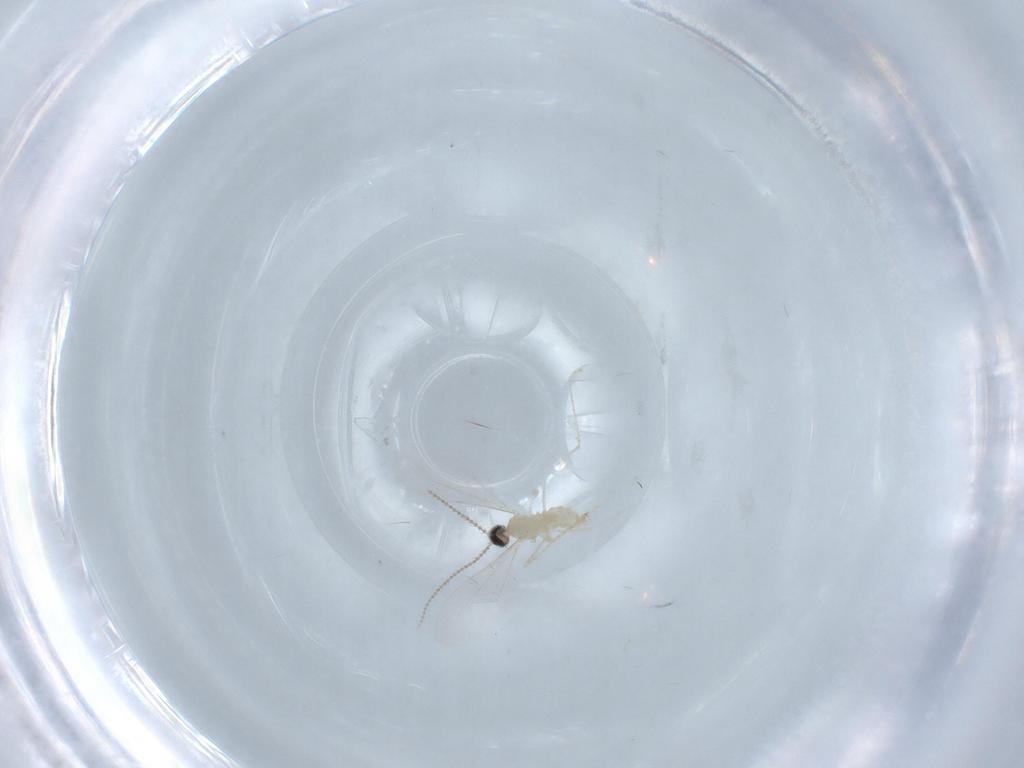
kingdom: Animalia
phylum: Arthropoda
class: Insecta
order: Diptera
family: Cecidomyiidae
